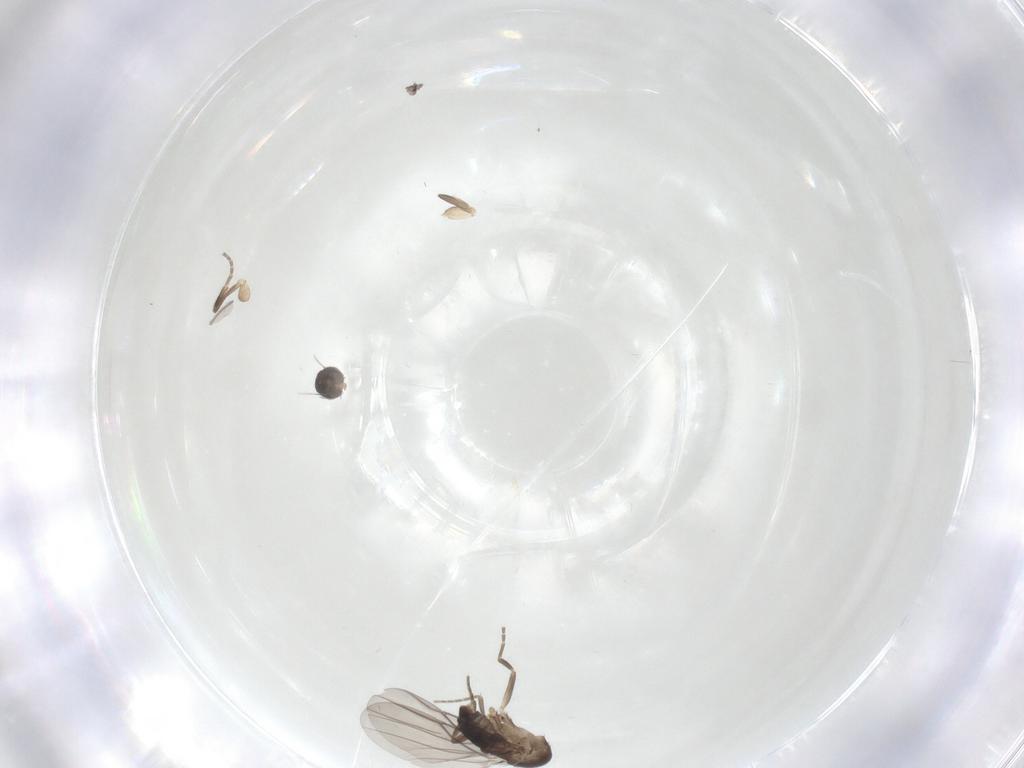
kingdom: Animalia
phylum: Arthropoda
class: Insecta
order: Diptera
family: Phoridae
